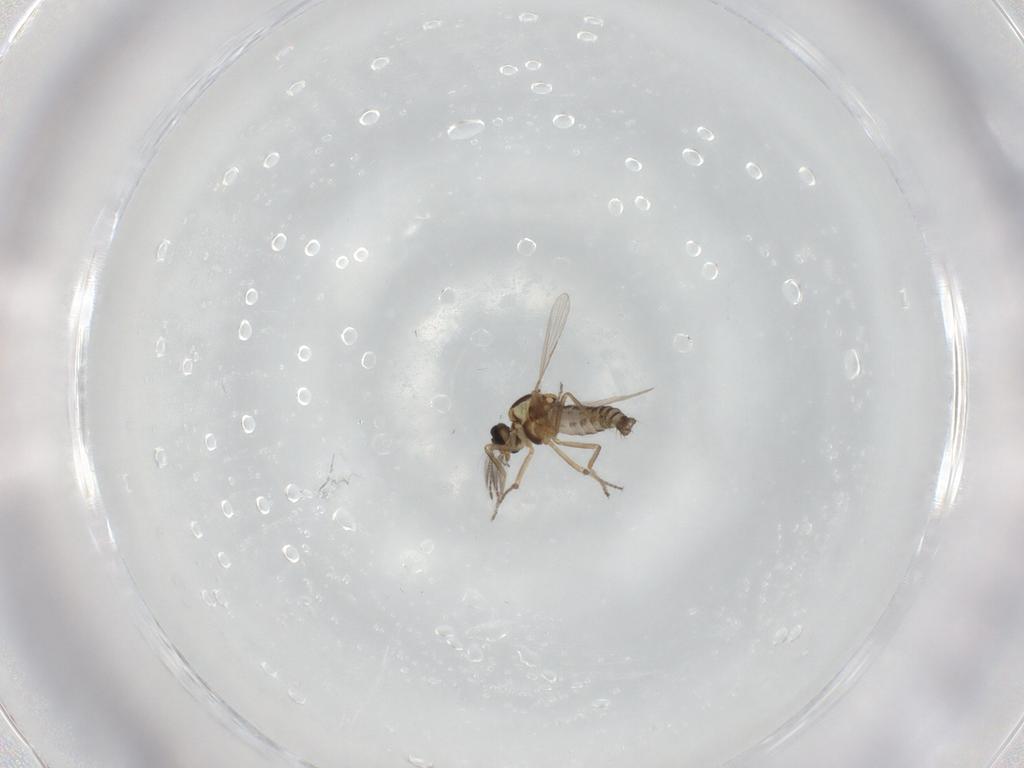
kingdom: Animalia
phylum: Arthropoda
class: Insecta
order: Diptera
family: Ceratopogonidae
